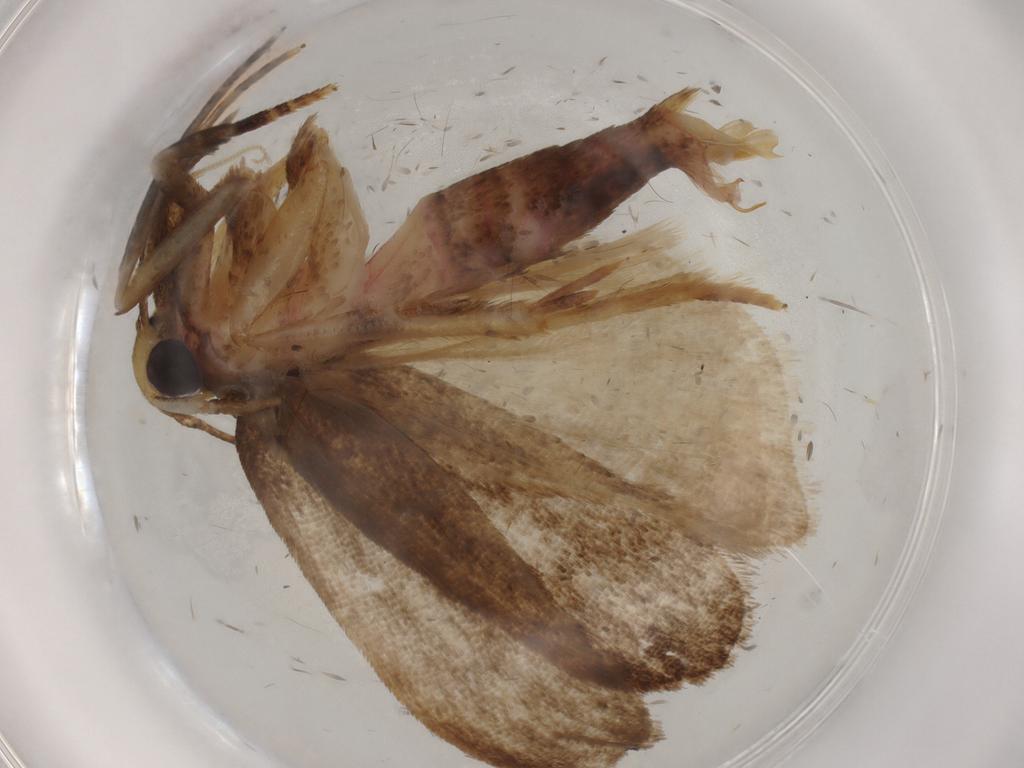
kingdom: Animalia
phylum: Arthropoda
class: Insecta
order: Lepidoptera
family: Tineidae
